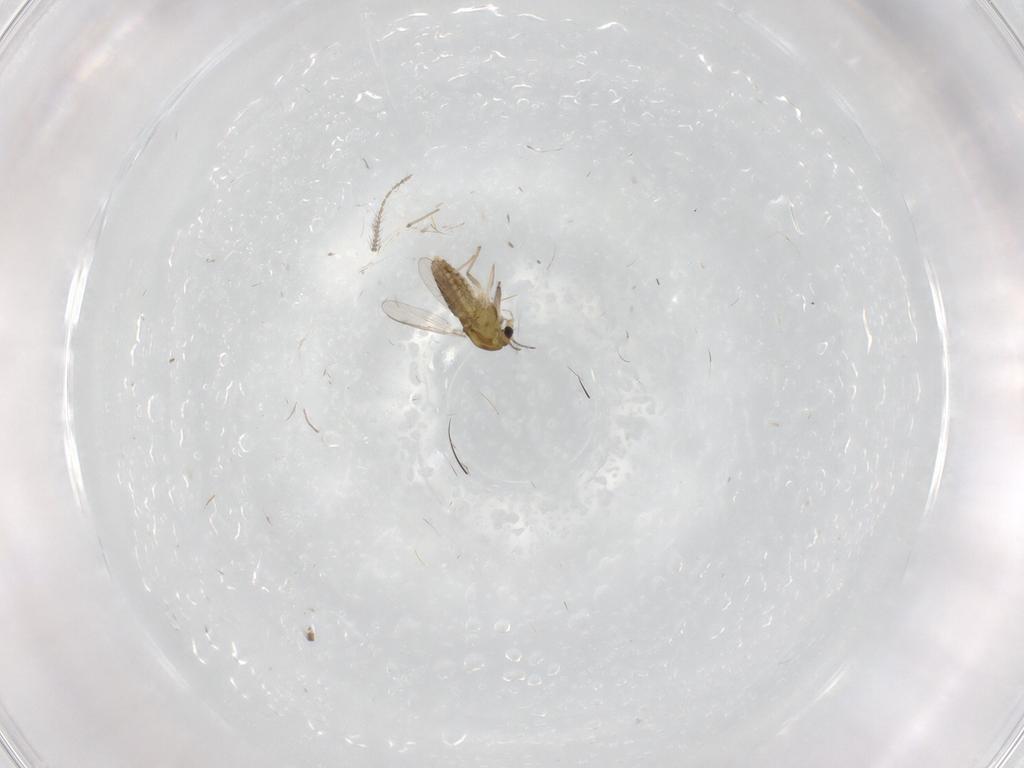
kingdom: Animalia
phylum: Arthropoda
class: Insecta
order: Diptera
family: Ceratopogonidae
